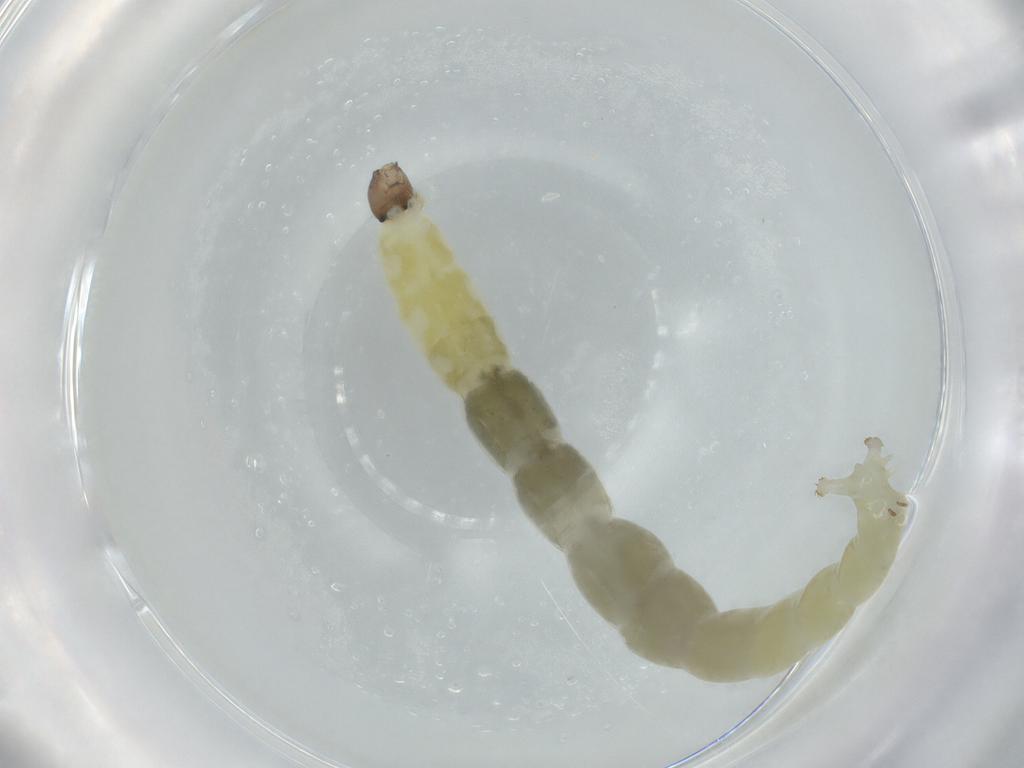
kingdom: Animalia
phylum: Arthropoda
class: Insecta
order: Diptera
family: Chironomidae
